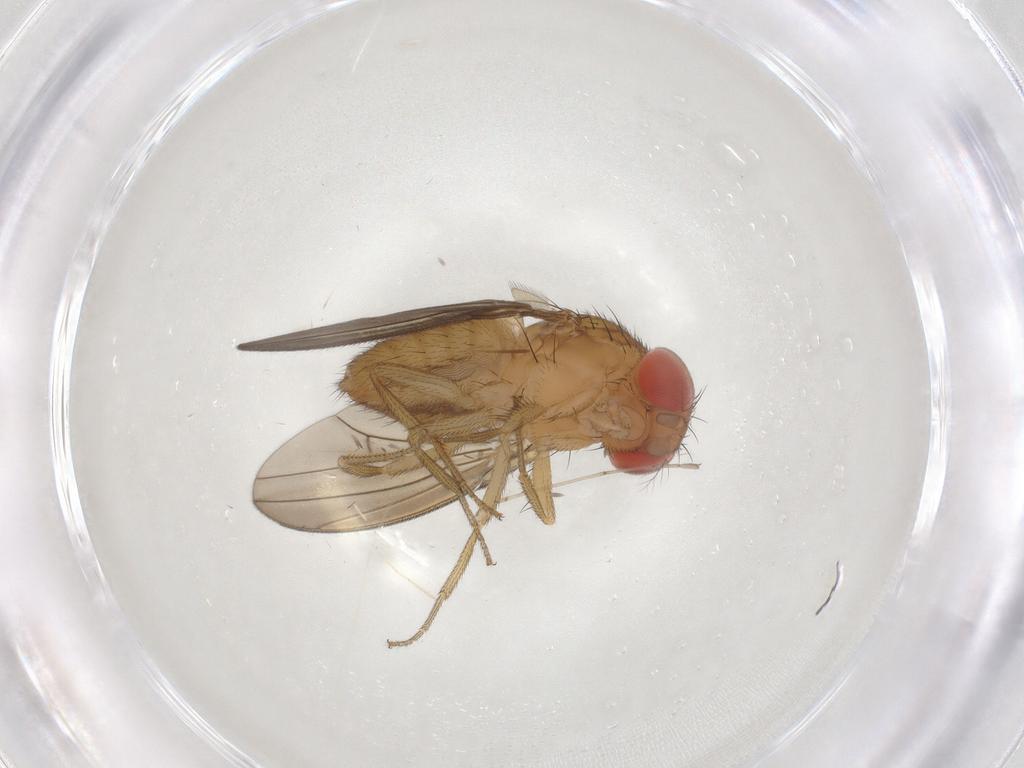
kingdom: Animalia
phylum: Arthropoda
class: Insecta
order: Diptera
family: Drosophilidae
